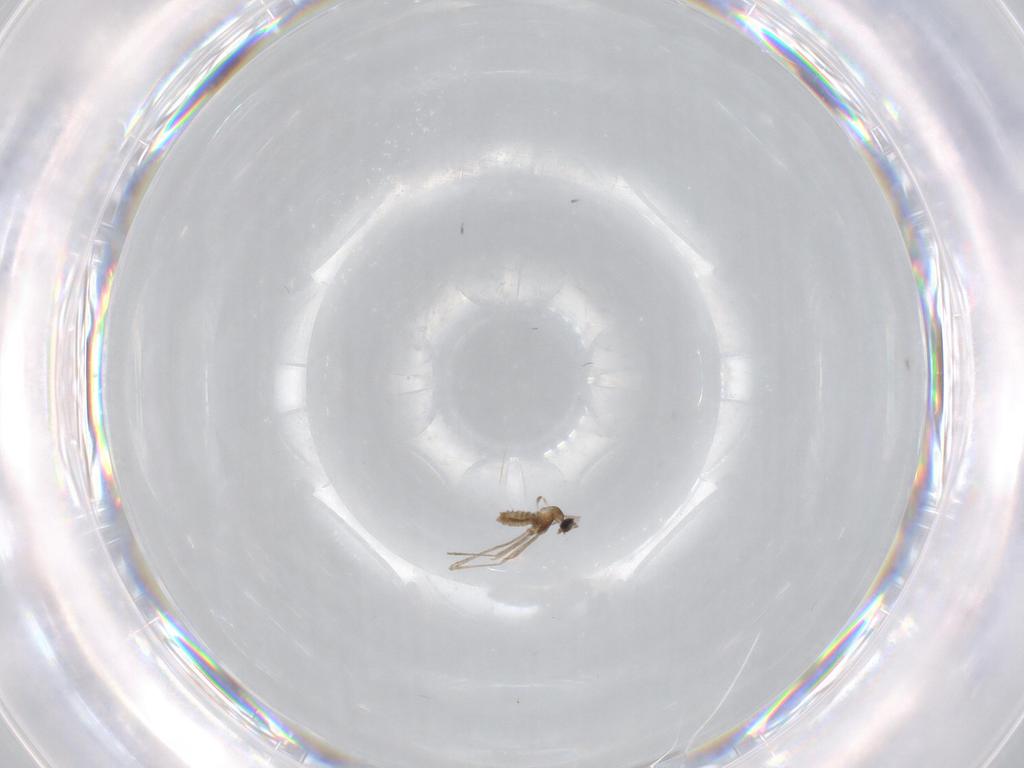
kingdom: Animalia
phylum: Arthropoda
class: Insecta
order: Diptera
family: Cecidomyiidae
